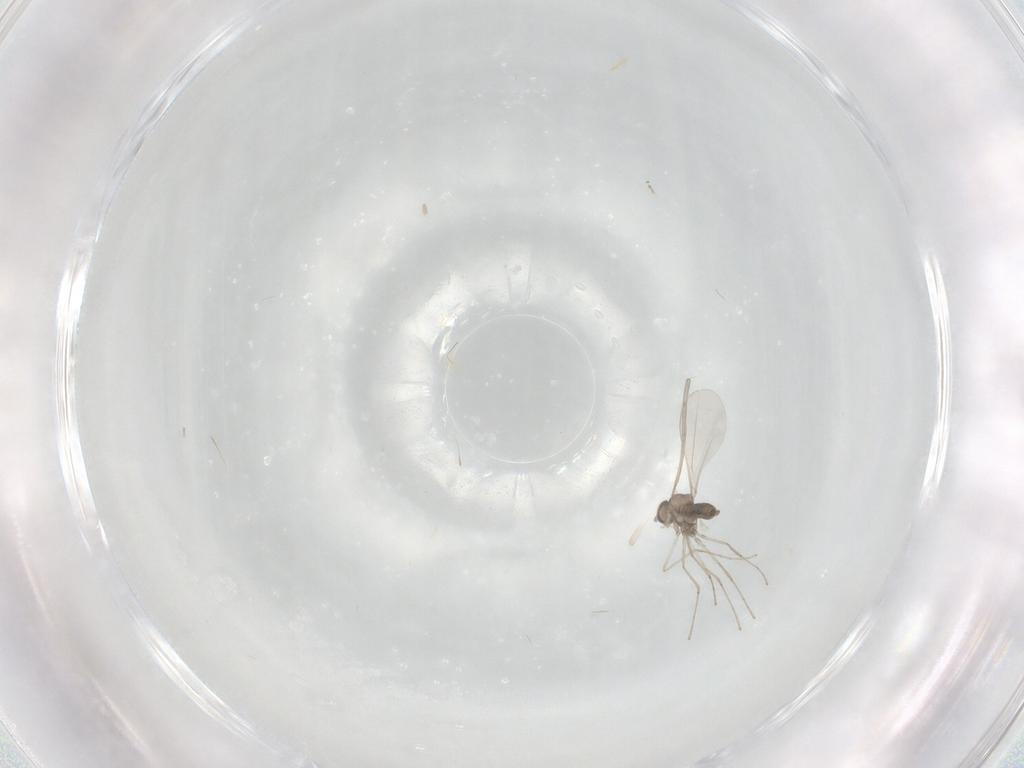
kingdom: Animalia
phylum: Arthropoda
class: Insecta
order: Diptera
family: Cecidomyiidae
